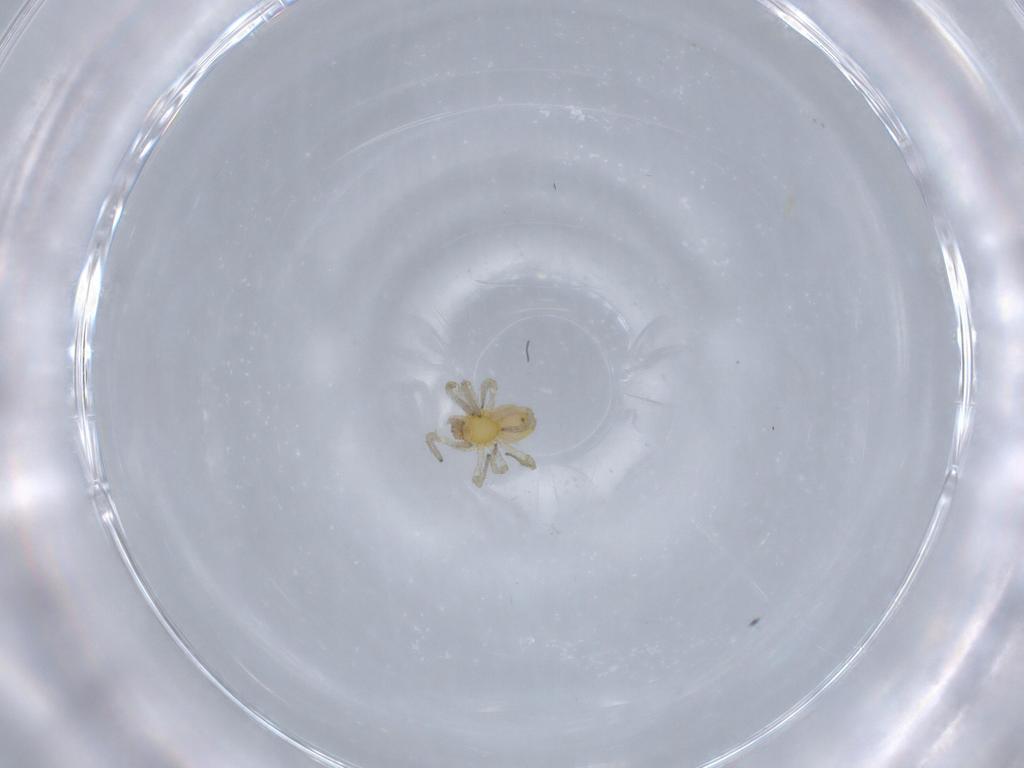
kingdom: Animalia
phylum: Arthropoda
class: Arachnida
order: Araneae
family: Dictynidae
